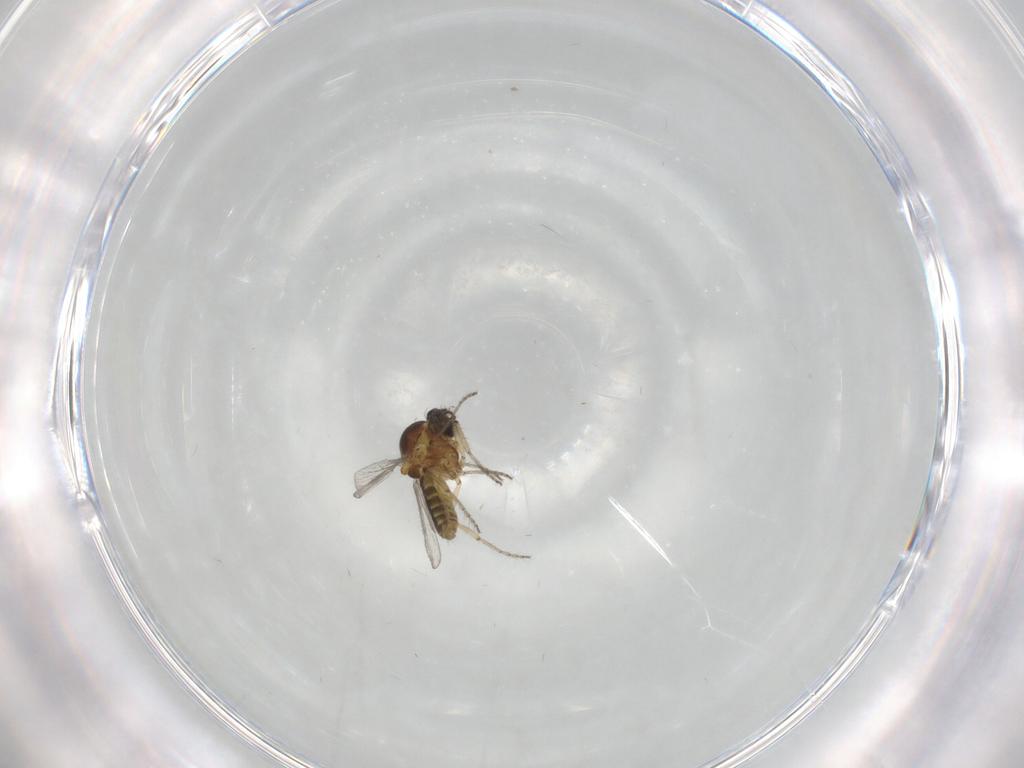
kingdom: Animalia
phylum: Arthropoda
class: Insecta
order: Diptera
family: Ceratopogonidae
